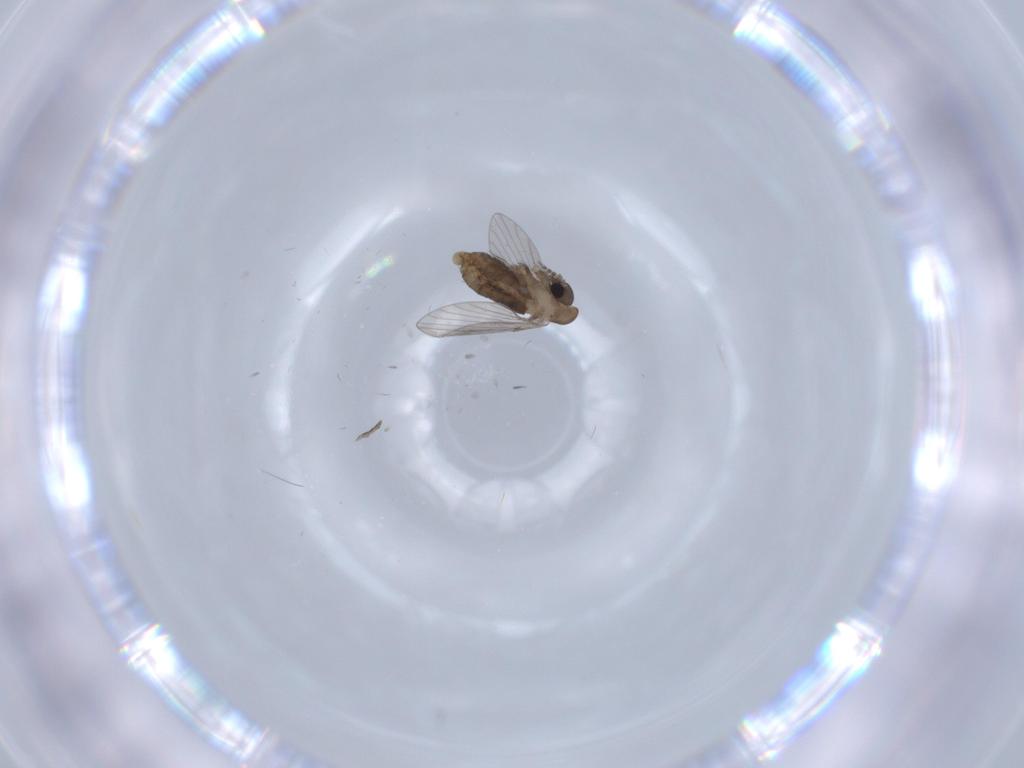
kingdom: Animalia
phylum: Arthropoda
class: Insecta
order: Diptera
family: Sciaridae
